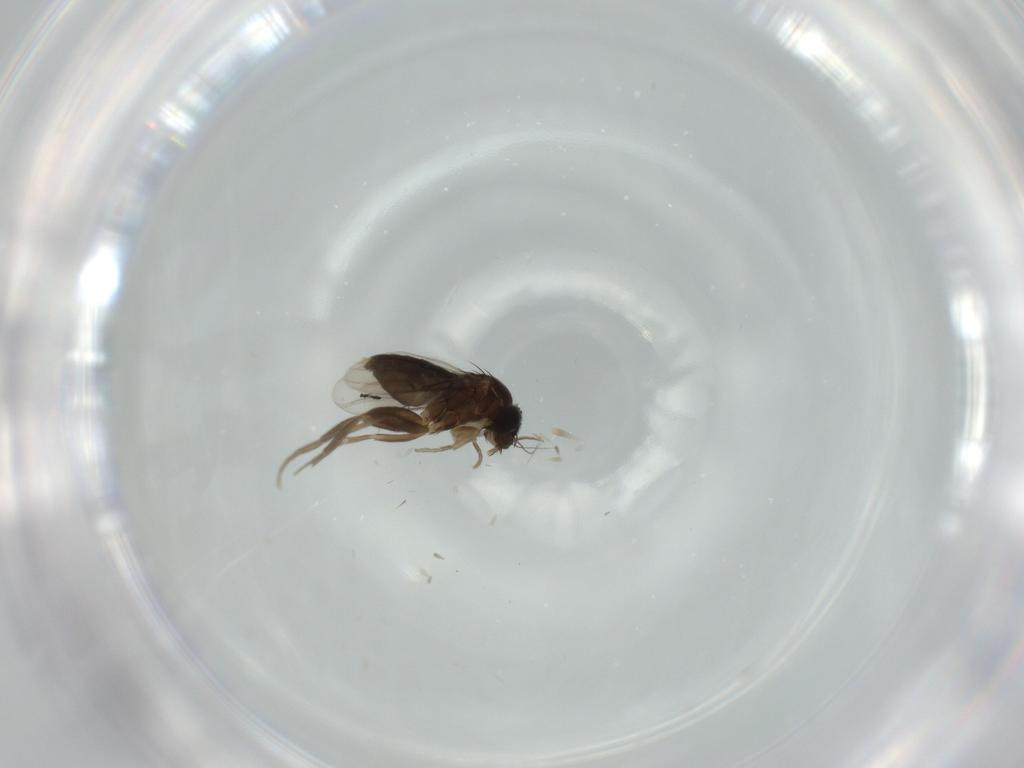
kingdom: Animalia
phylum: Arthropoda
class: Insecta
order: Diptera
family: Phoridae
